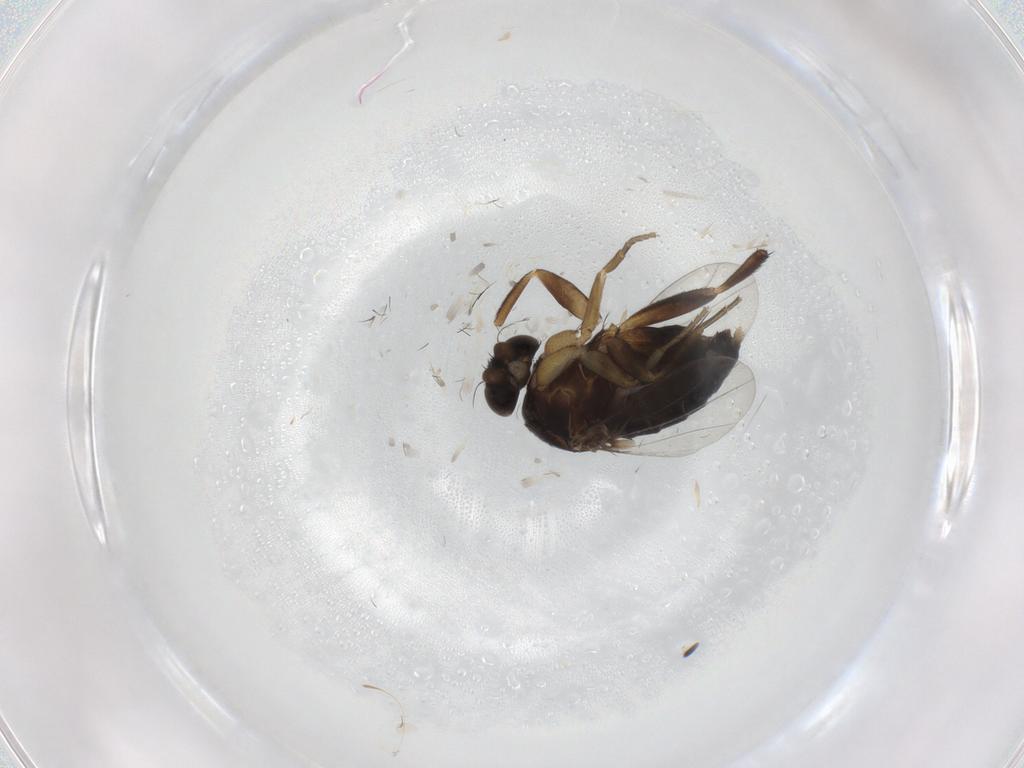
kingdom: Animalia
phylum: Arthropoda
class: Insecta
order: Diptera
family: Phoridae
